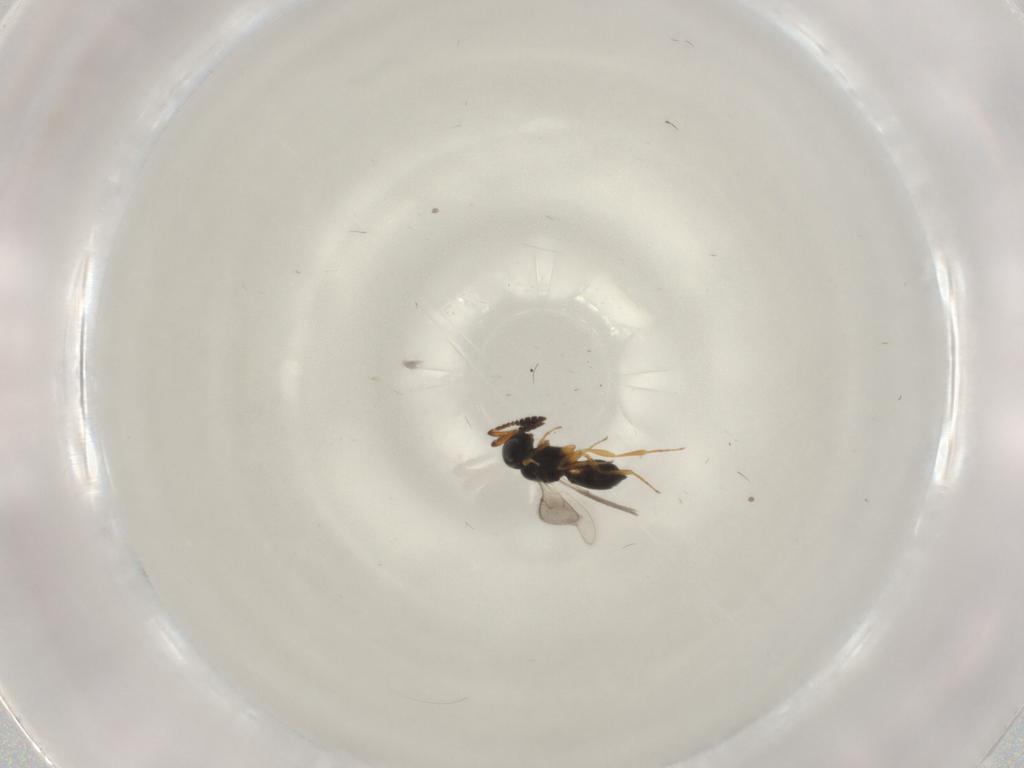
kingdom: Animalia
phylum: Arthropoda
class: Insecta
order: Hymenoptera
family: Scelionidae
